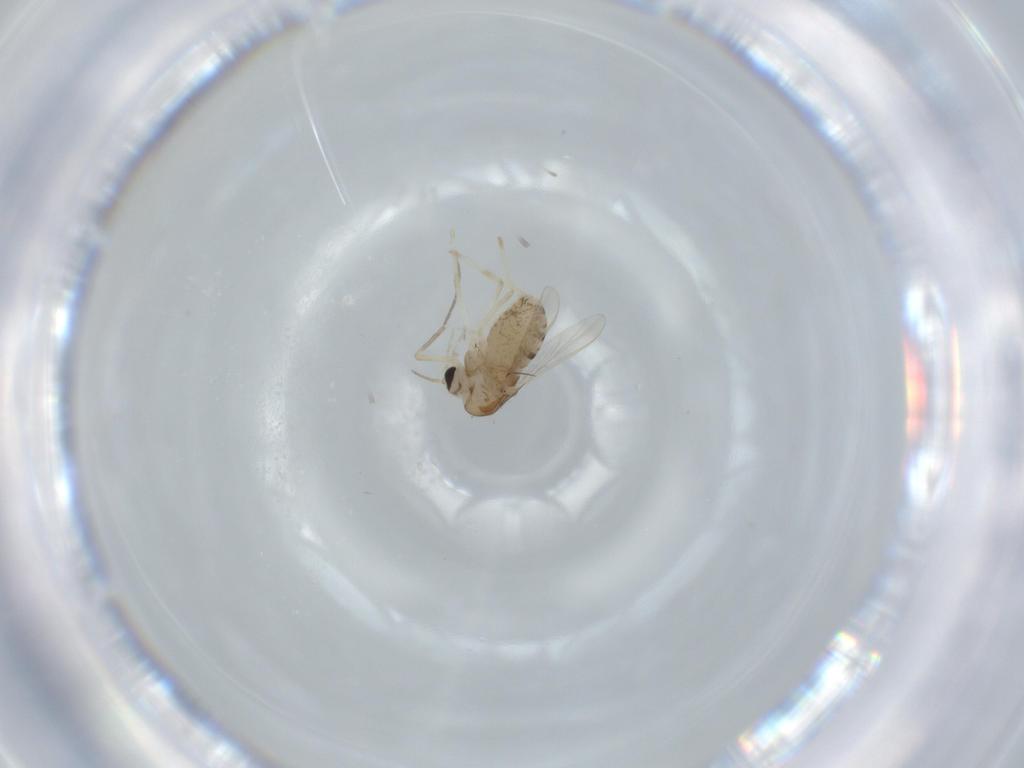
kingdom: Animalia
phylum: Arthropoda
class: Insecta
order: Diptera
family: Chironomidae
